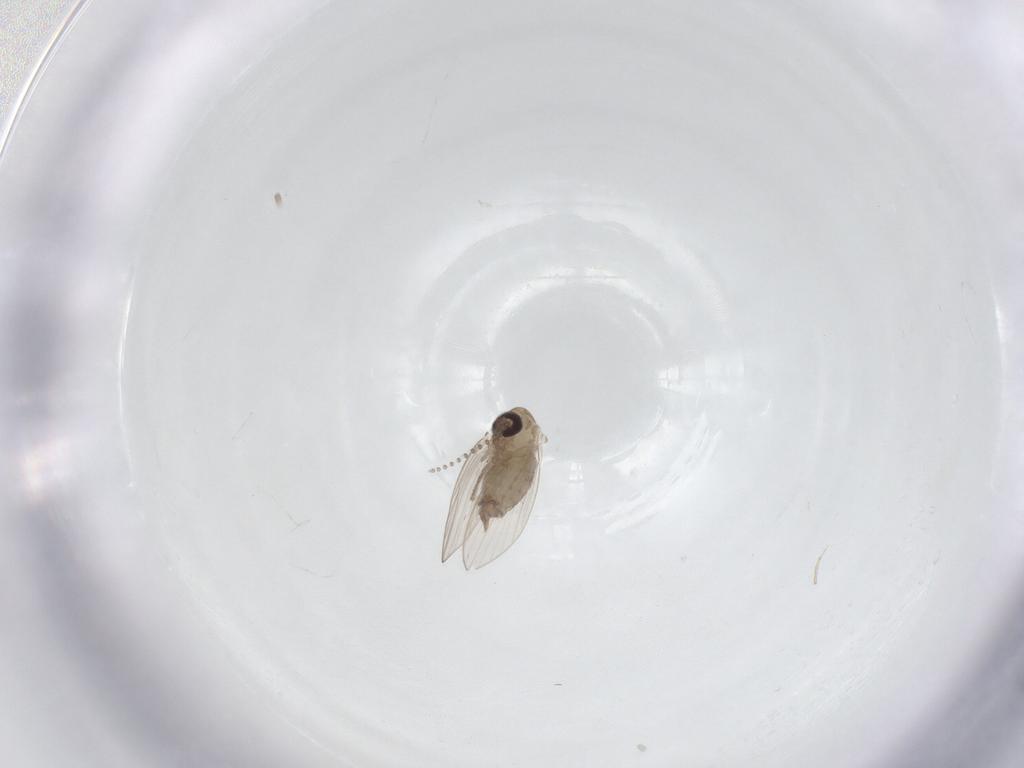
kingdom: Animalia
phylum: Arthropoda
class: Insecta
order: Diptera
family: Psychodidae
